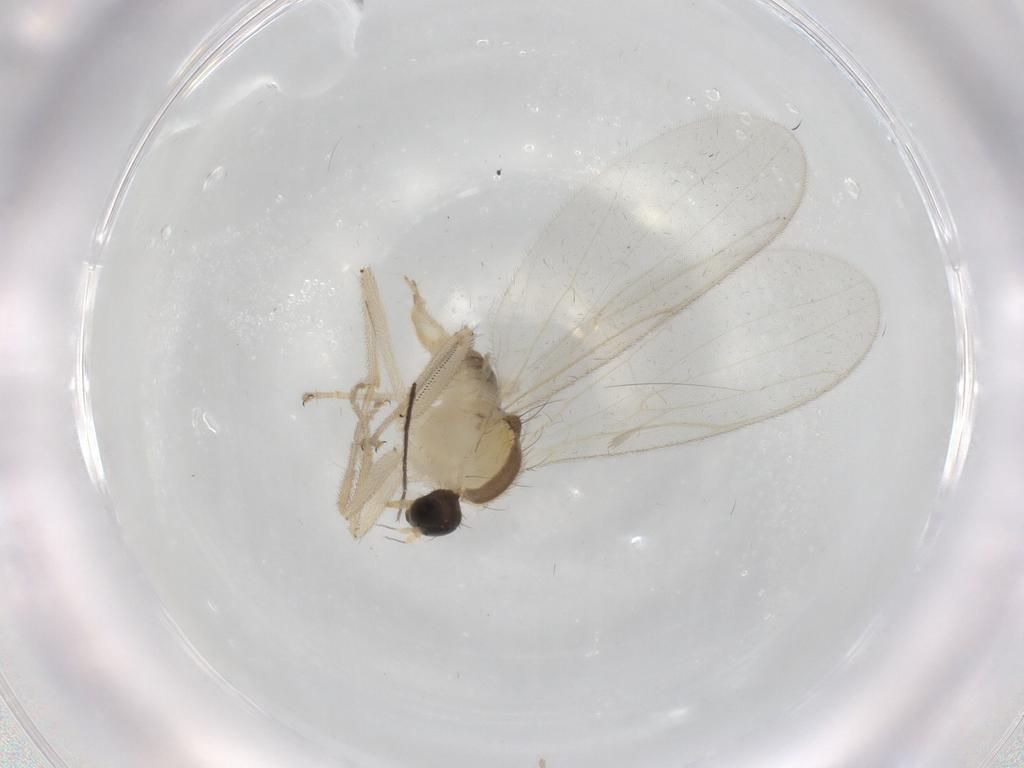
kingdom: Animalia
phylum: Arthropoda
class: Insecta
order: Diptera
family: Hybotidae
